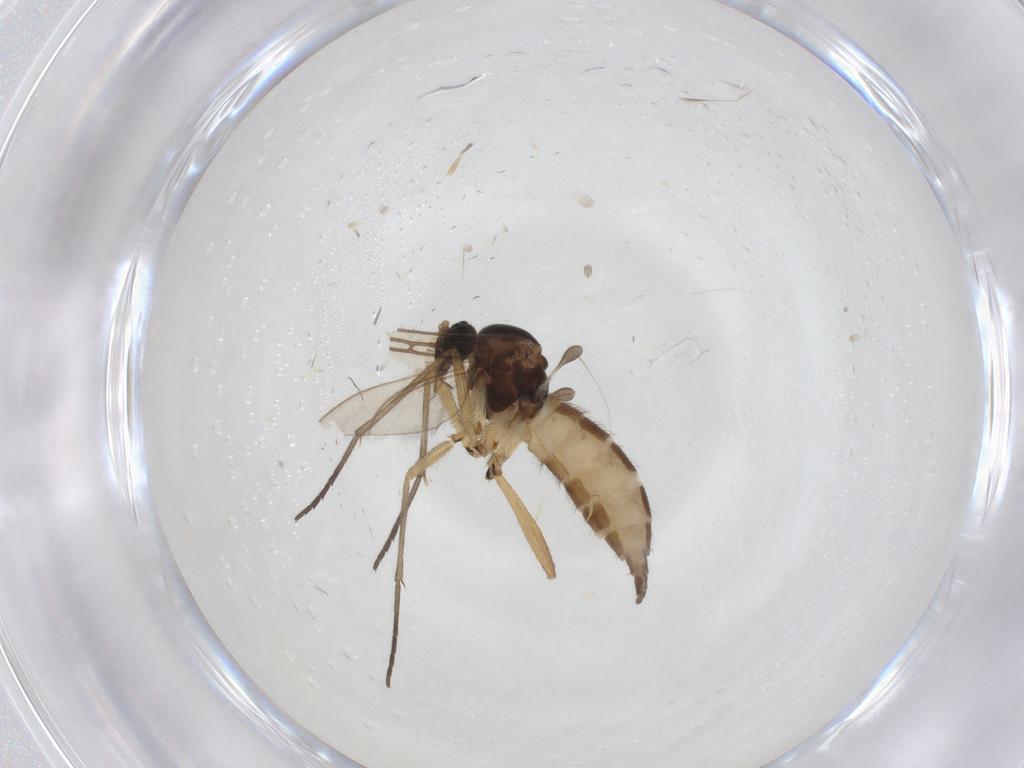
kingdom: Animalia
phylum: Arthropoda
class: Insecta
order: Diptera
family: Sciaridae
